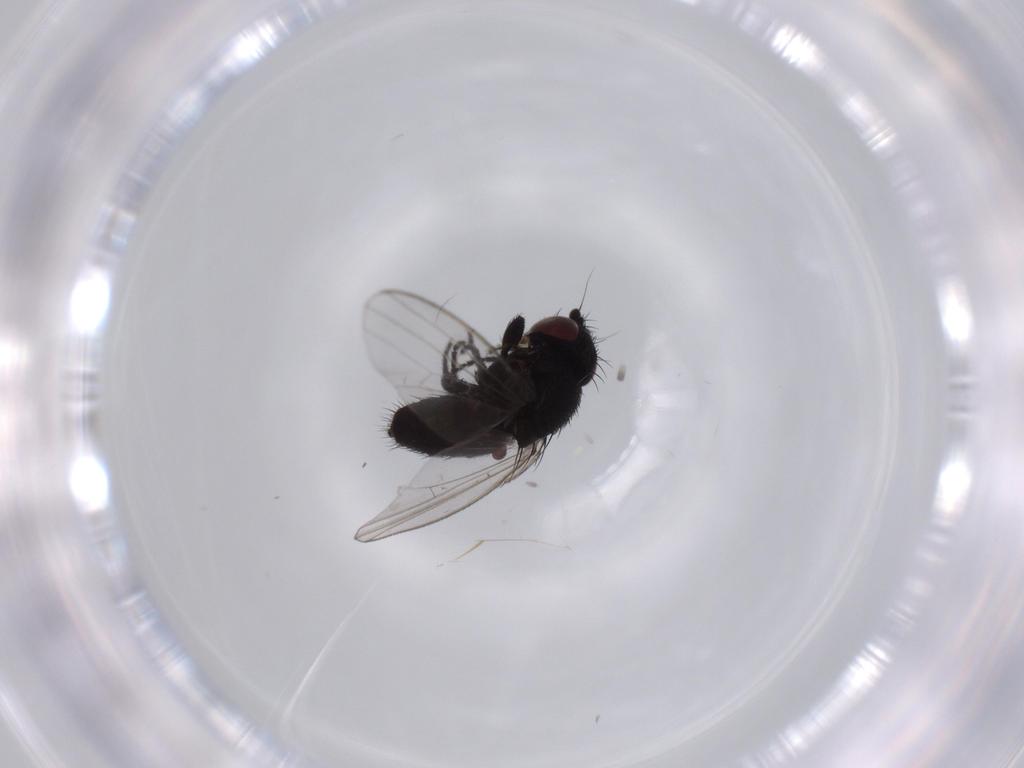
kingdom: Animalia
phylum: Arthropoda
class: Insecta
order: Diptera
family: Milichiidae
